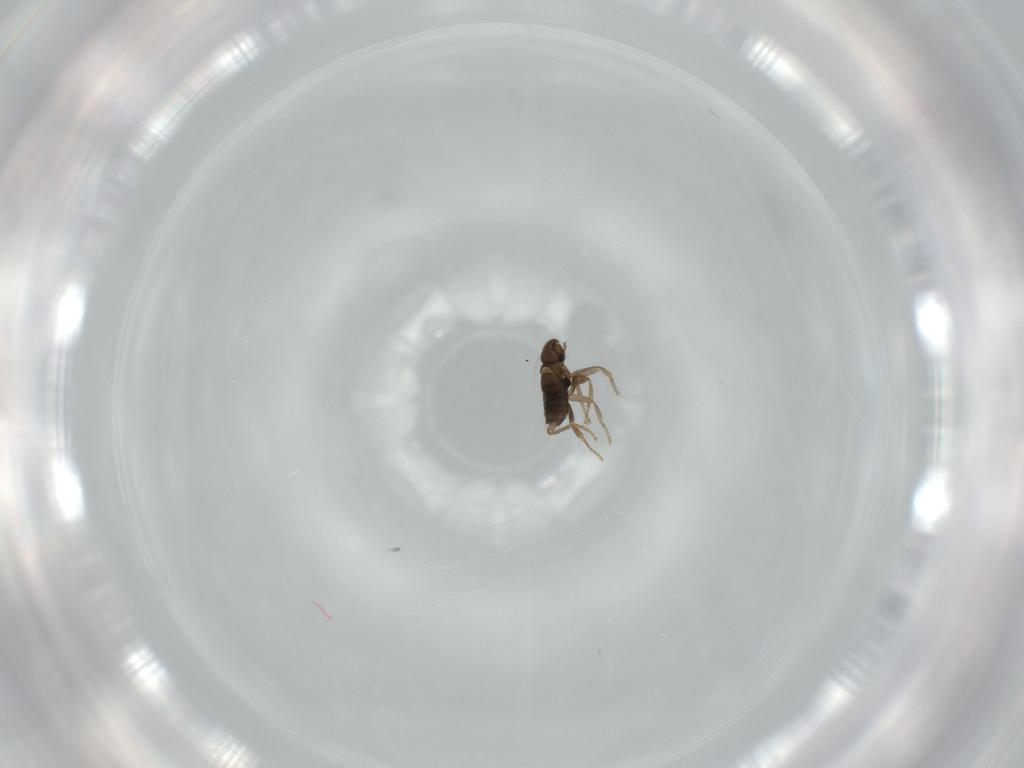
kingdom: Animalia
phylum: Arthropoda
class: Insecta
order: Diptera
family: Phoridae
